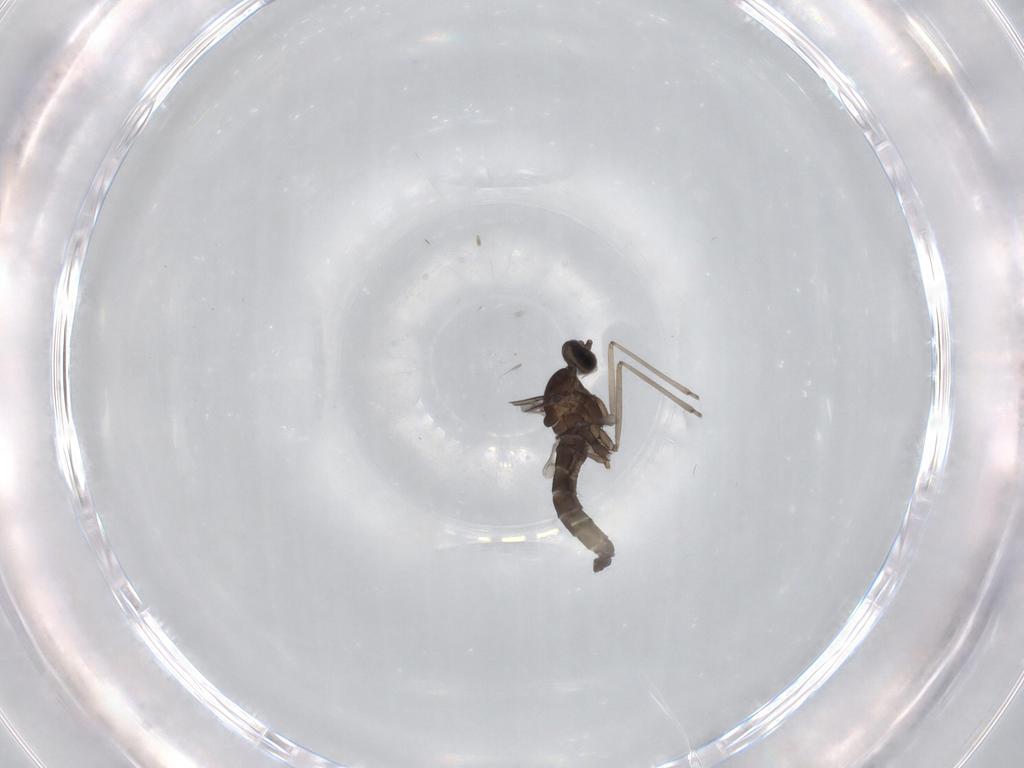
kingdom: Animalia
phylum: Arthropoda
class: Insecta
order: Diptera
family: Cecidomyiidae
